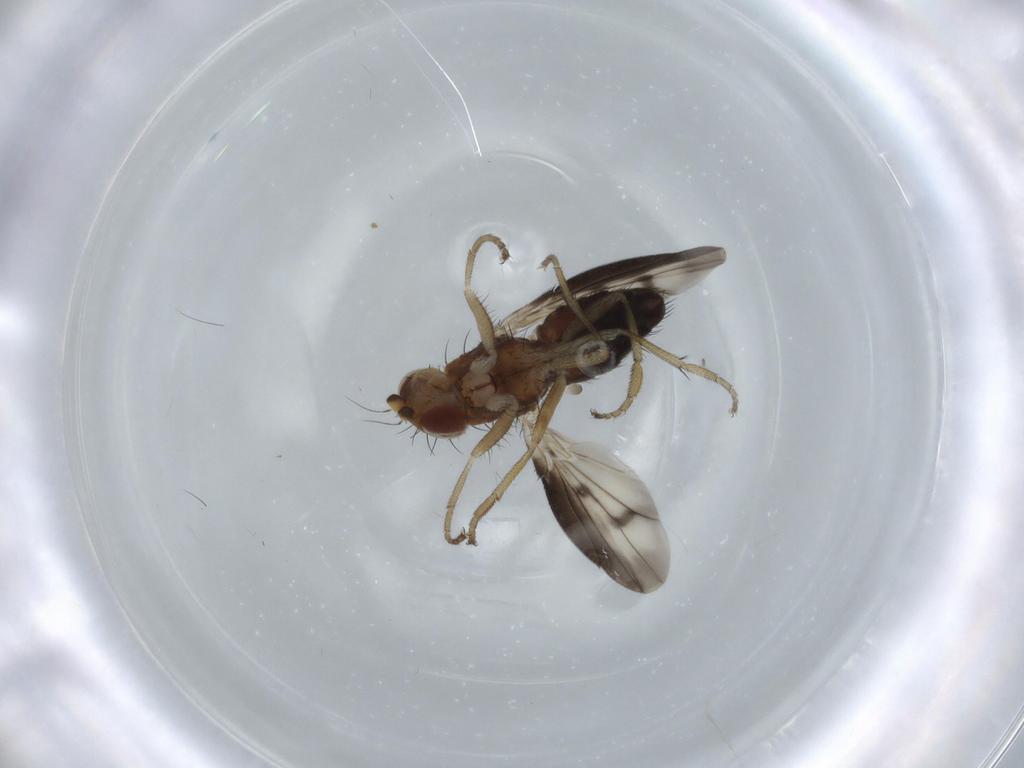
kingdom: Animalia
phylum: Arthropoda
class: Insecta
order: Diptera
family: Heleomyzidae
